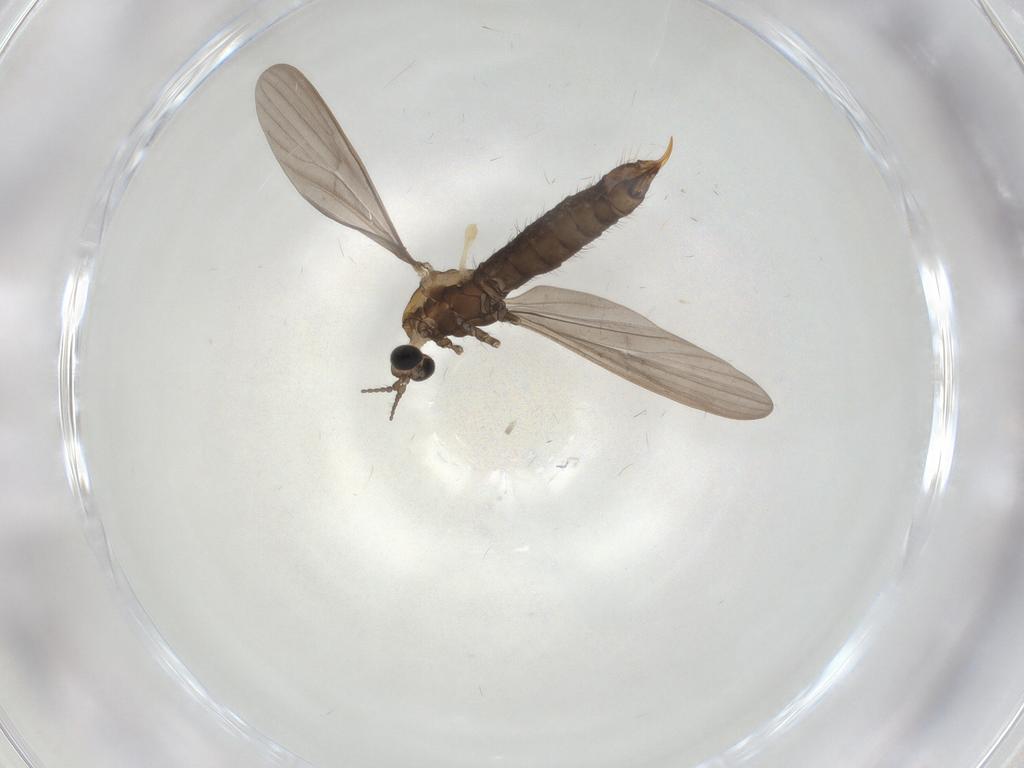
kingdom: Animalia
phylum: Arthropoda
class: Insecta
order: Diptera
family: Limoniidae
